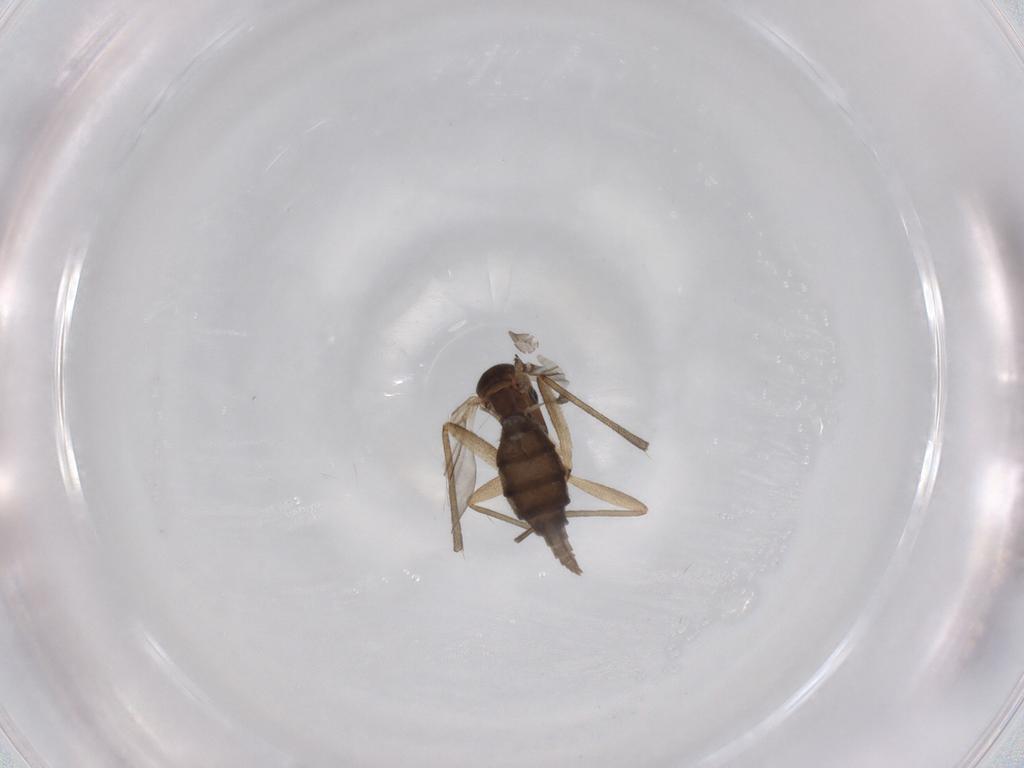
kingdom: Animalia
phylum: Arthropoda
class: Insecta
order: Diptera
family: Sciaridae
